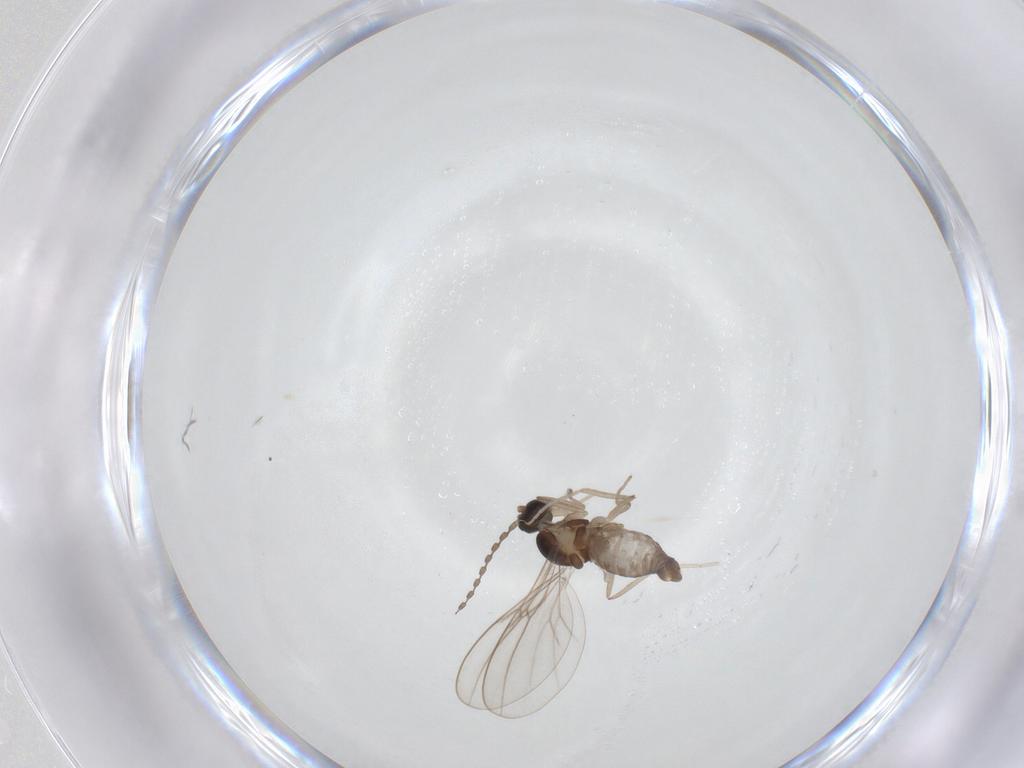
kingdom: Animalia
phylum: Arthropoda
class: Insecta
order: Diptera
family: Cecidomyiidae
